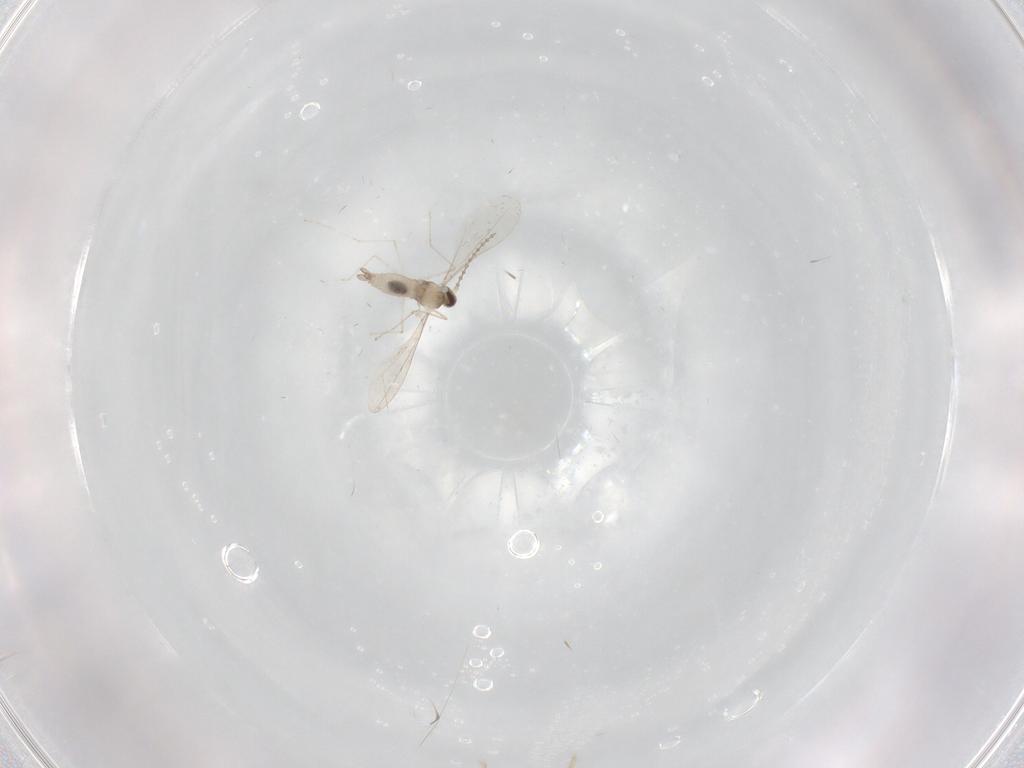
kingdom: Animalia
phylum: Arthropoda
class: Insecta
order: Diptera
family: Cecidomyiidae
